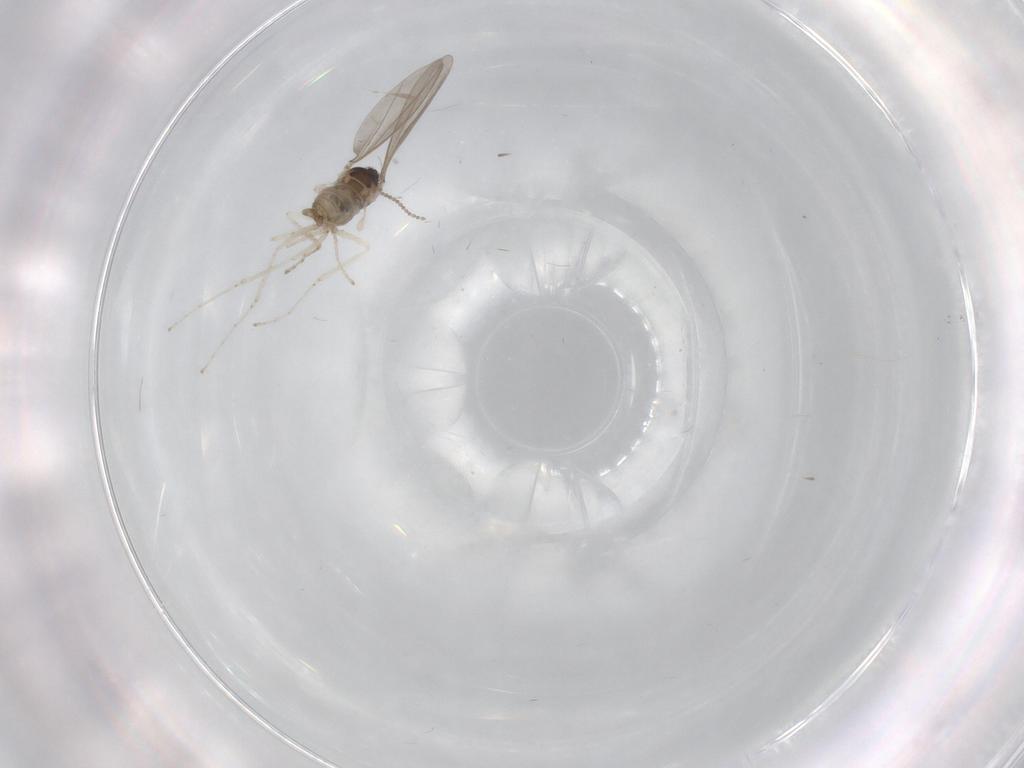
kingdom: Animalia
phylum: Arthropoda
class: Insecta
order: Diptera
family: Cecidomyiidae
